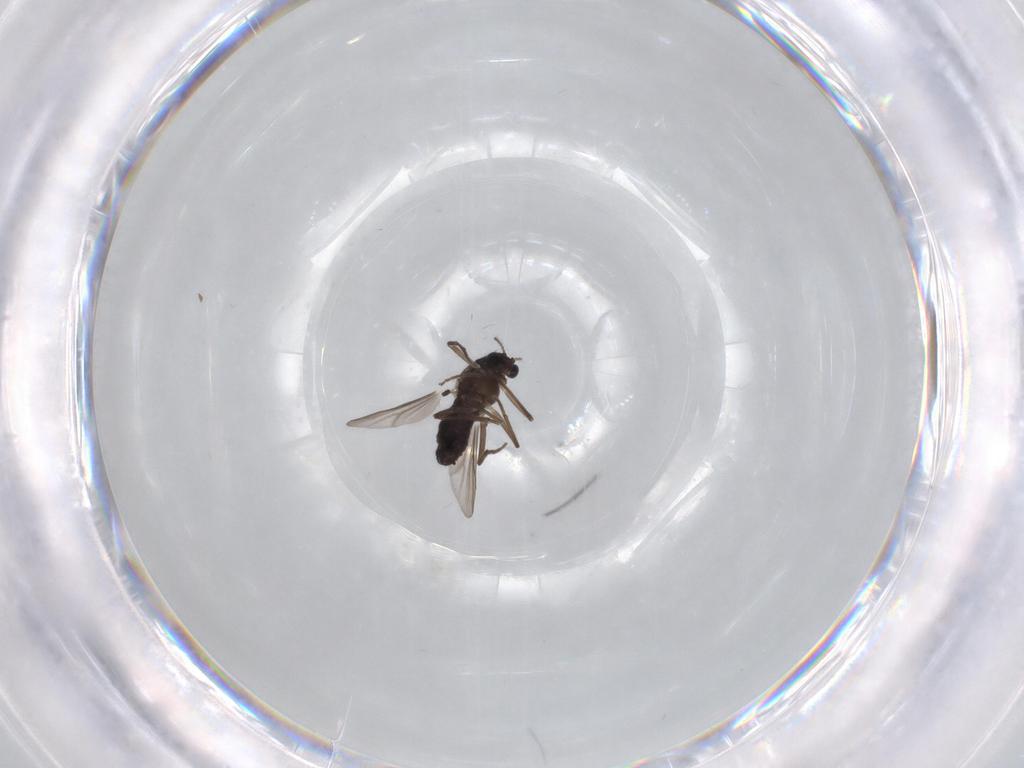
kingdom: Animalia
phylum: Arthropoda
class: Insecta
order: Diptera
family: Chironomidae
